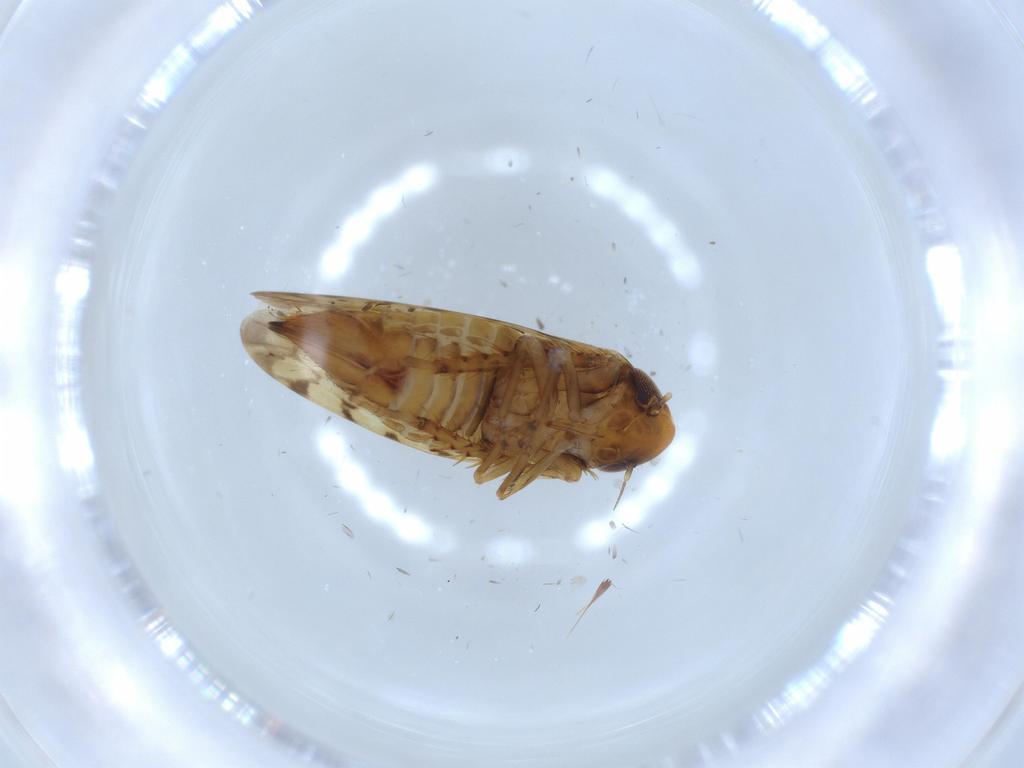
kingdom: Animalia
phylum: Arthropoda
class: Insecta
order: Hemiptera
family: Cicadellidae
